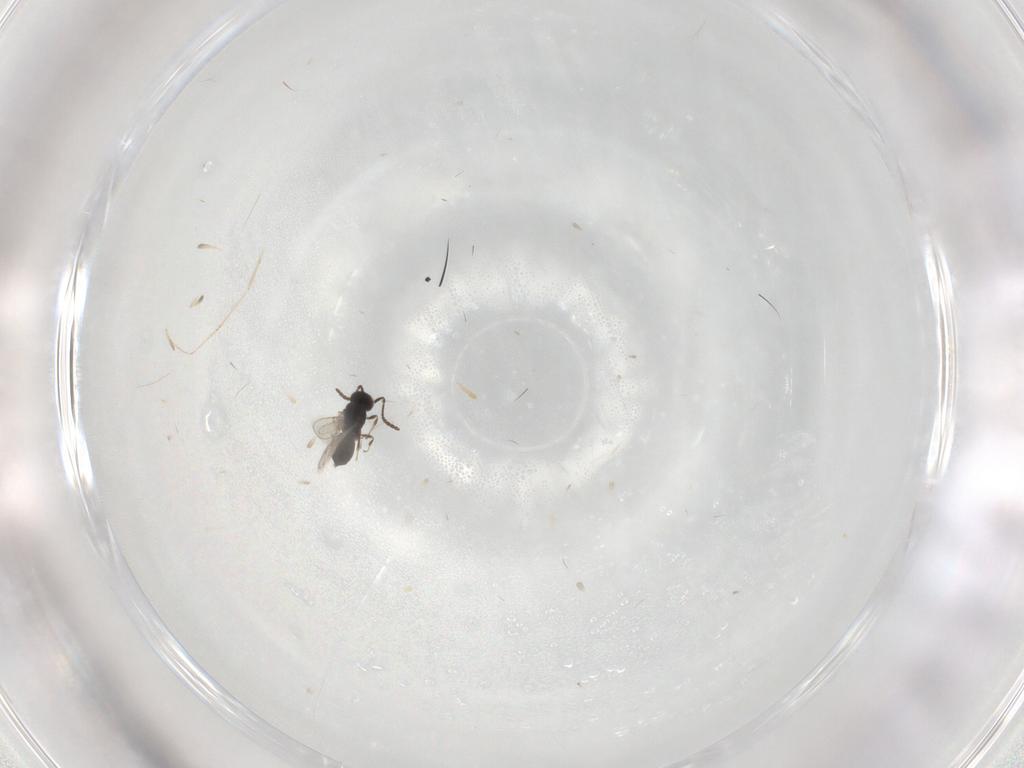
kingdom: Animalia
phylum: Arthropoda
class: Insecta
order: Hymenoptera
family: Scelionidae
